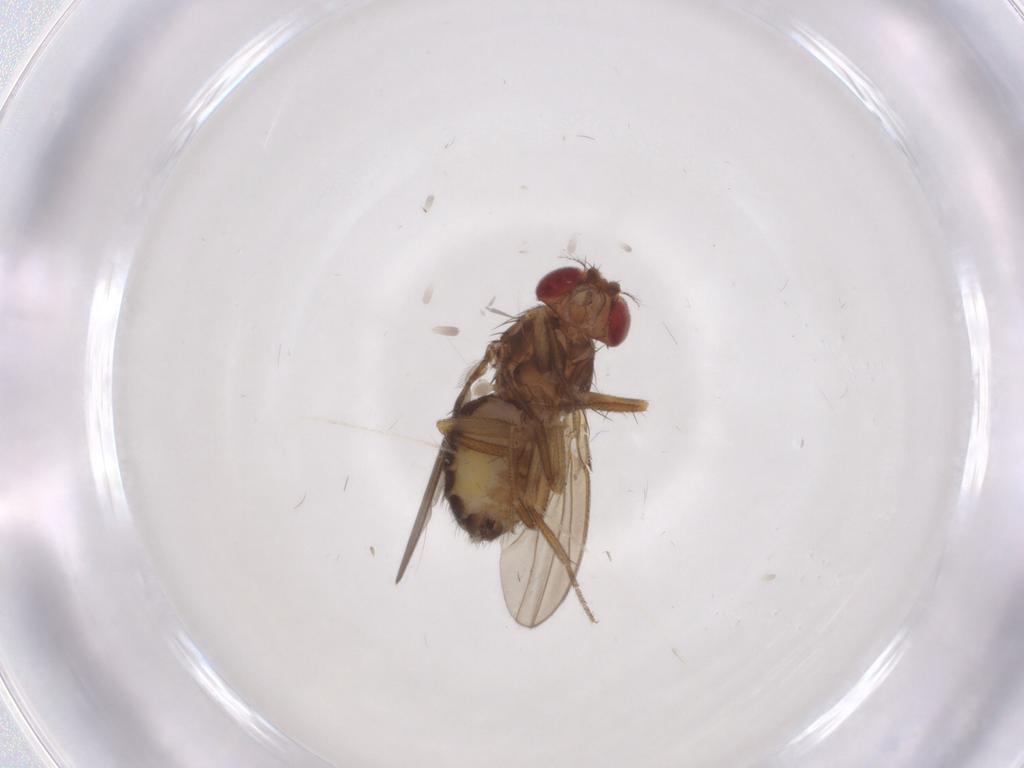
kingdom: Animalia
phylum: Arthropoda
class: Insecta
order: Diptera
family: Drosophilidae
